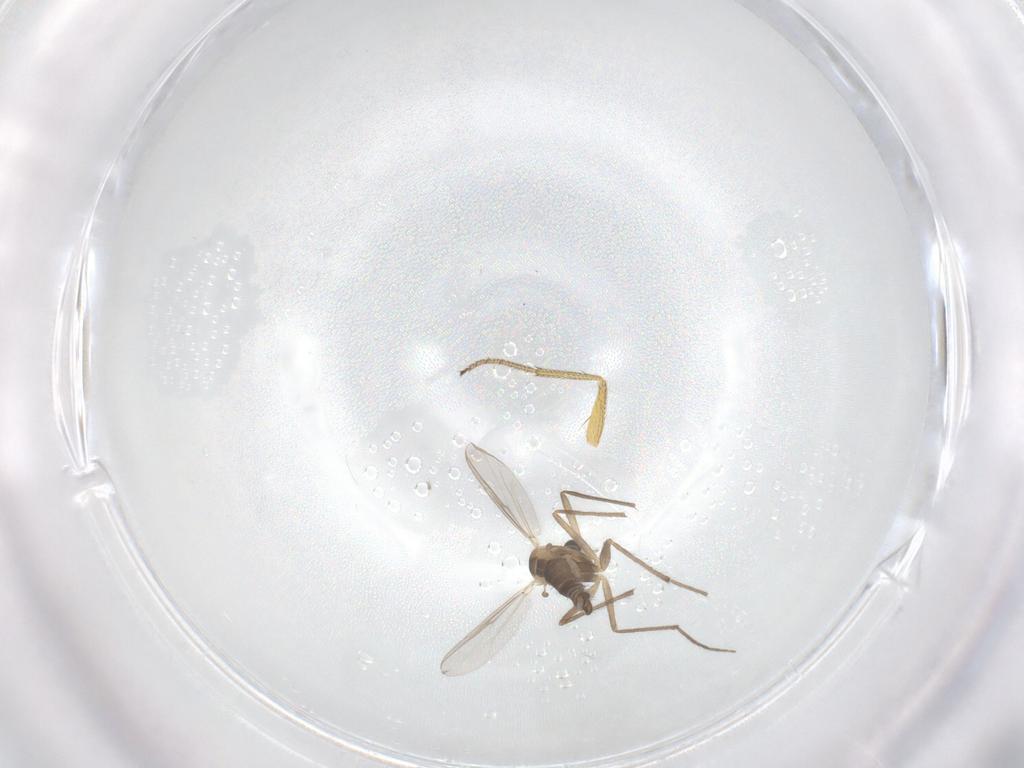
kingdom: Animalia
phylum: Arthropoda
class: Insecta
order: Diptera
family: Chironomidae
